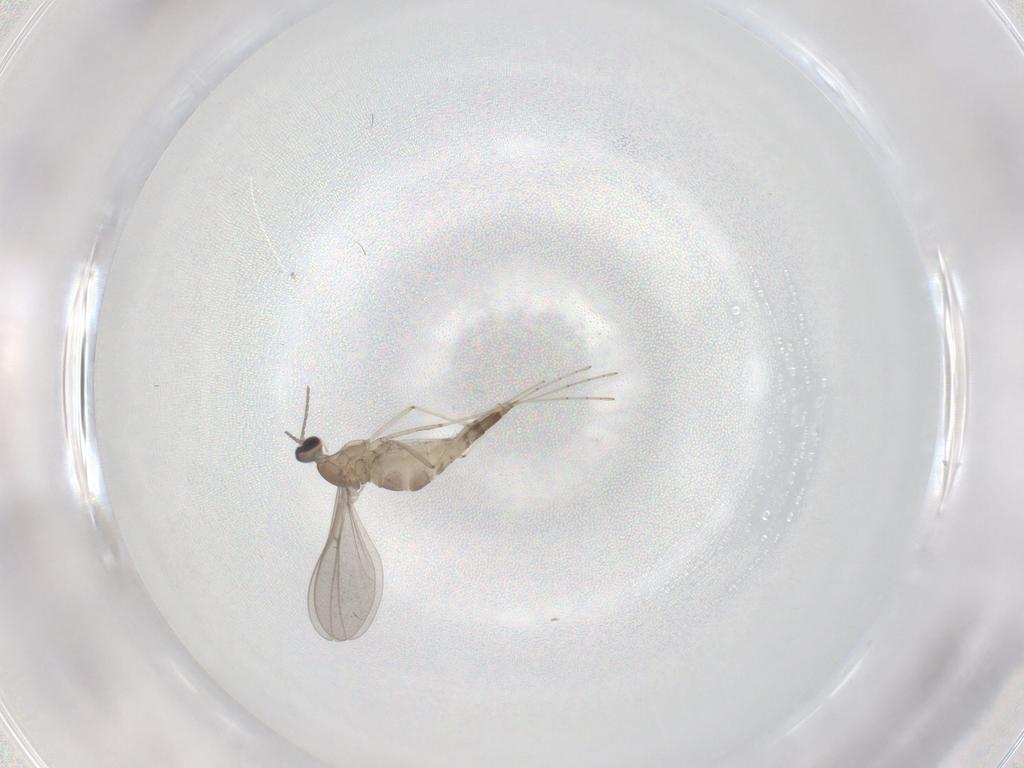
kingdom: Animalia
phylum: Arthropoda
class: Insecta
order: Diptera
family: Cecidomyiidae
